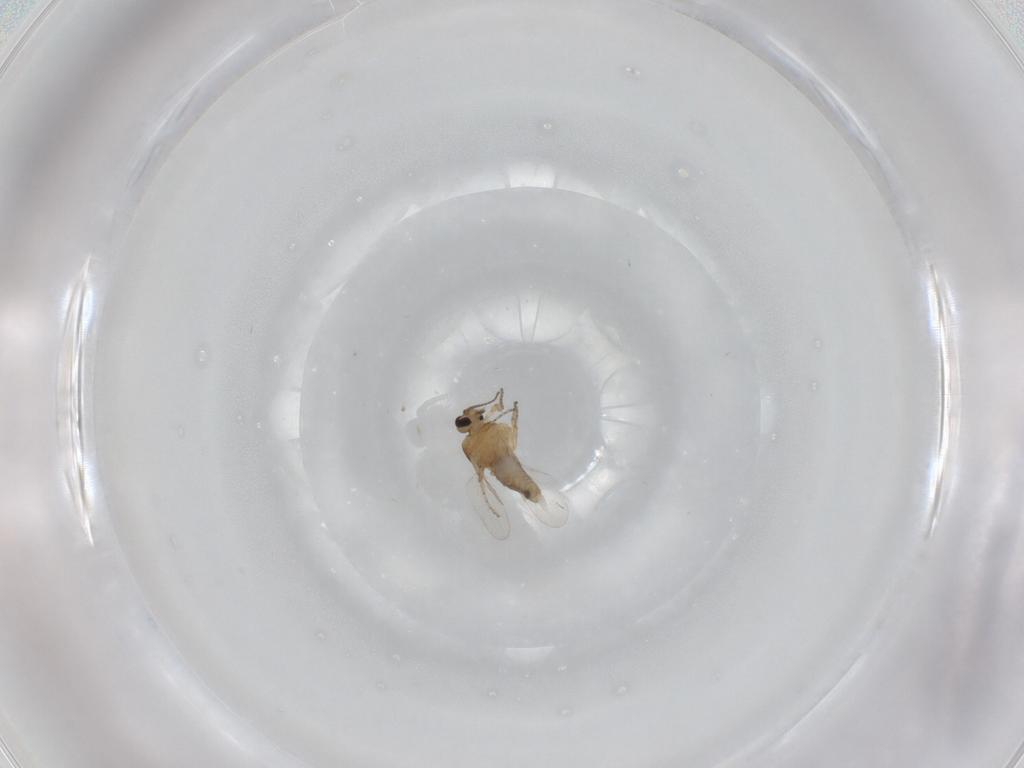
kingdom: Animalia
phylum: Arthropoda
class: Insecta
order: Diptera
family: Ceratopogonidae
